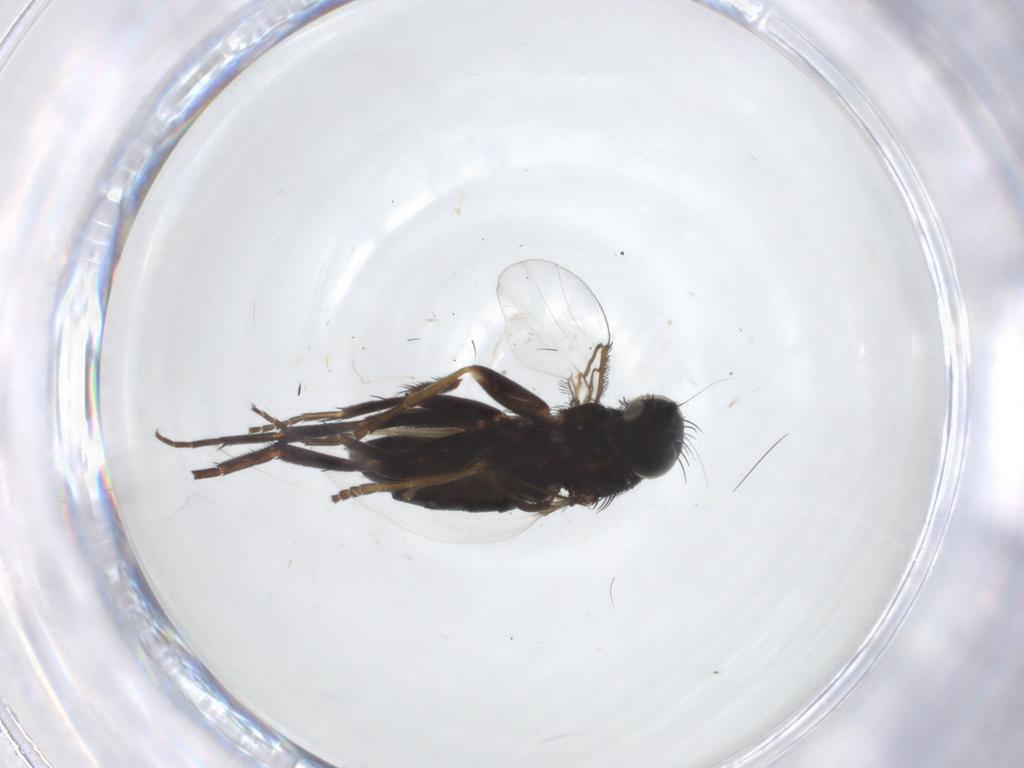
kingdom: Animalia
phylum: Arthropoda
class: Insecta
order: Diptera
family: Phoridae
